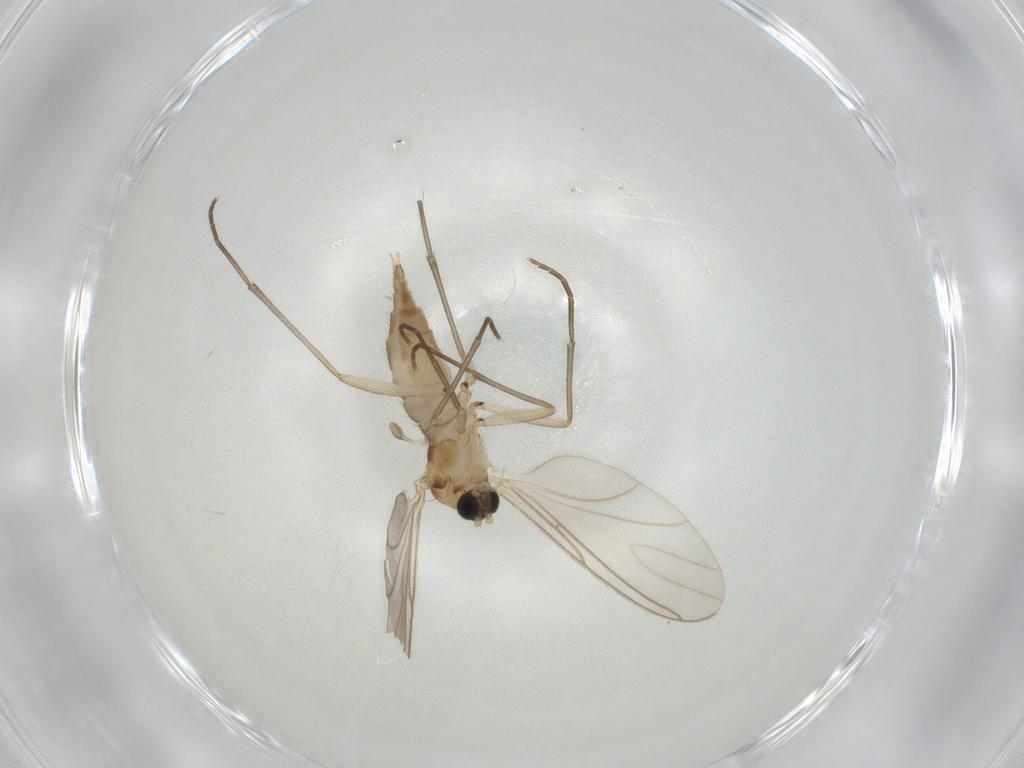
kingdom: Animalia
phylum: Arthropoda
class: Insecta
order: Diptera
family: Sciaridae
